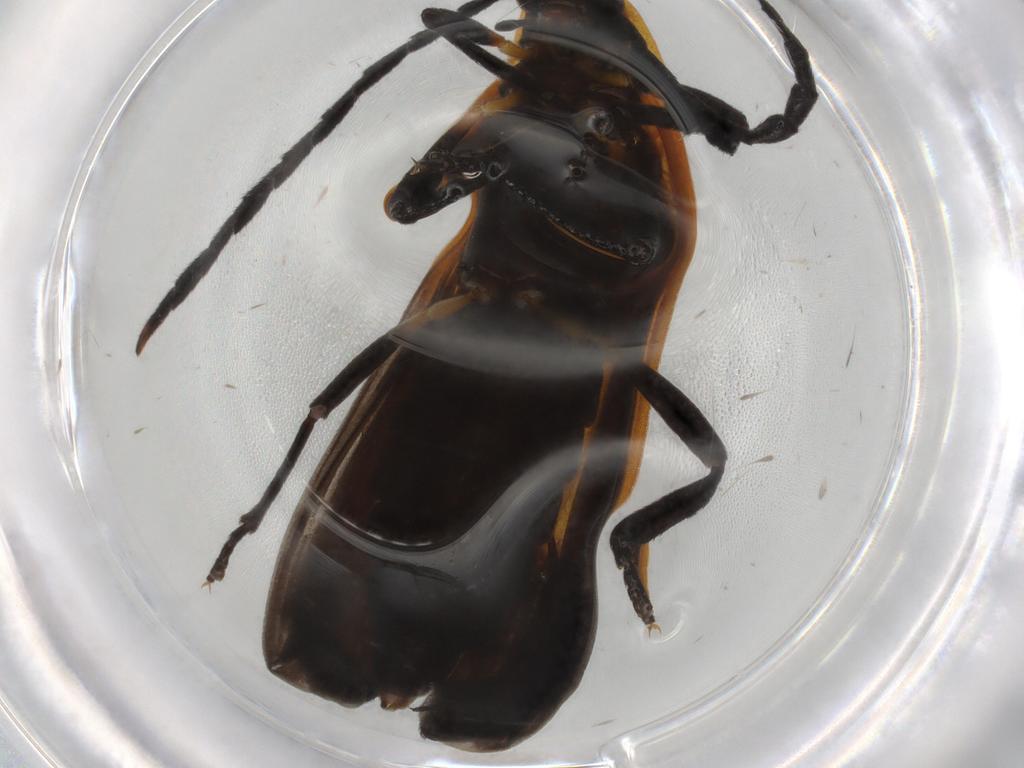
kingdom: Animalia
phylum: Arthropoda
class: Insecta
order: Coleoptera
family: Lycidae
